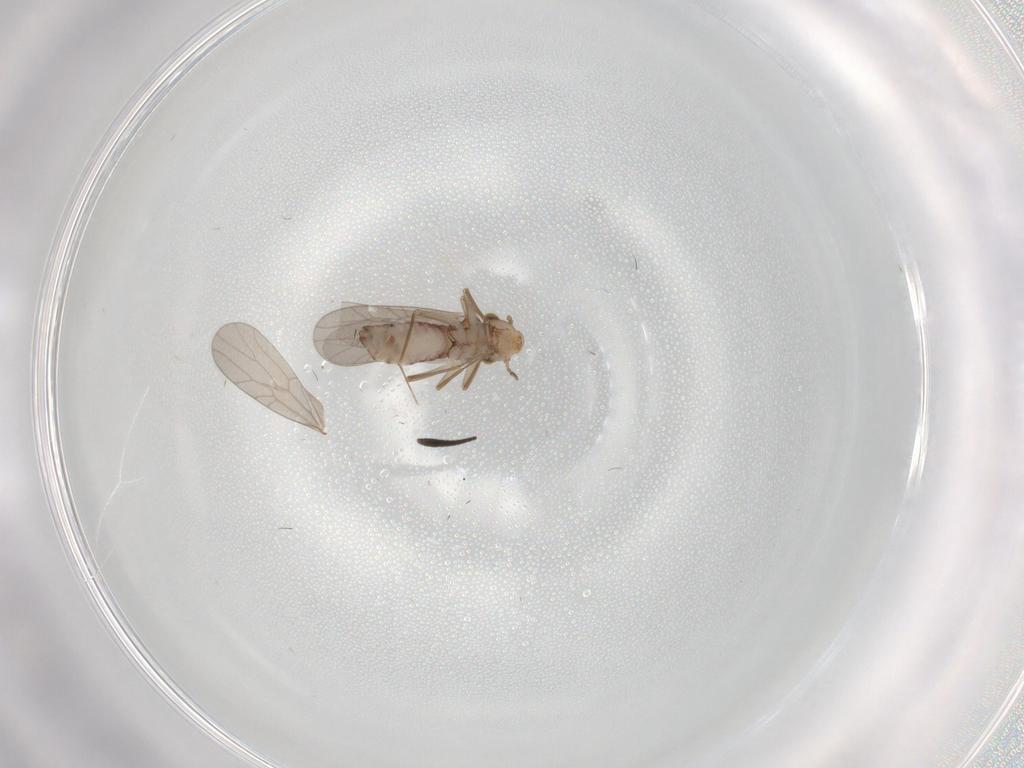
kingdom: Animalia
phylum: Arthropoda
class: Insecta
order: Psocodea
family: Lepidopsocidae
